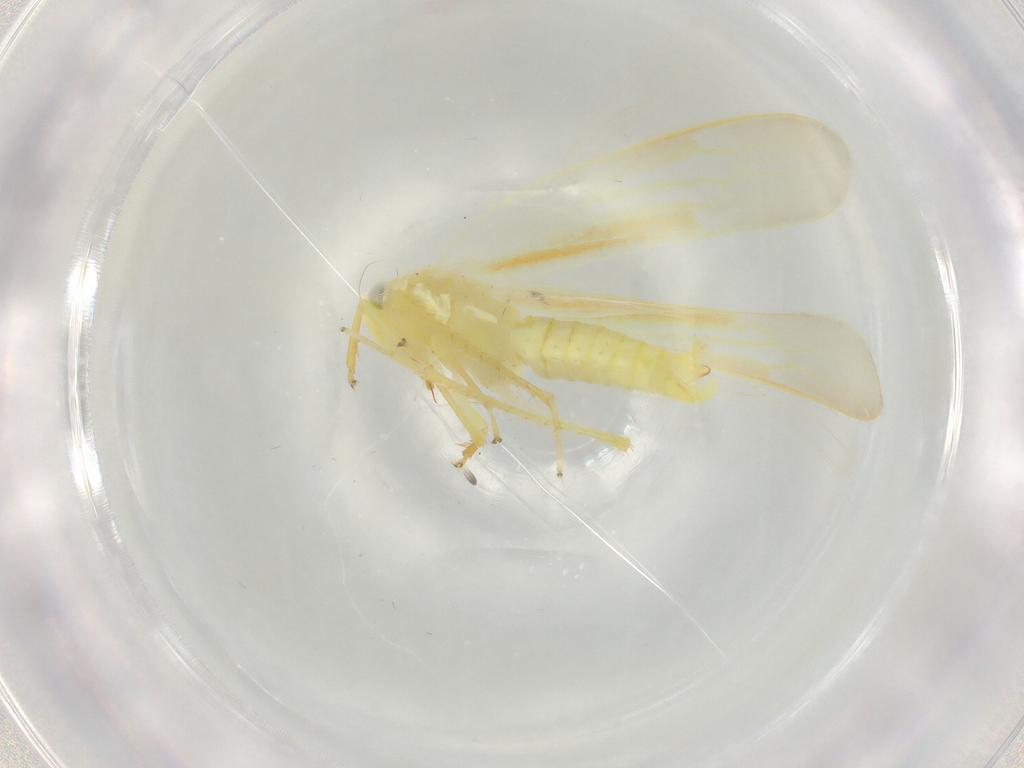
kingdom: Animalia
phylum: Arthropoda
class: Insecta
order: Hemiptera
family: Cicadellidae
